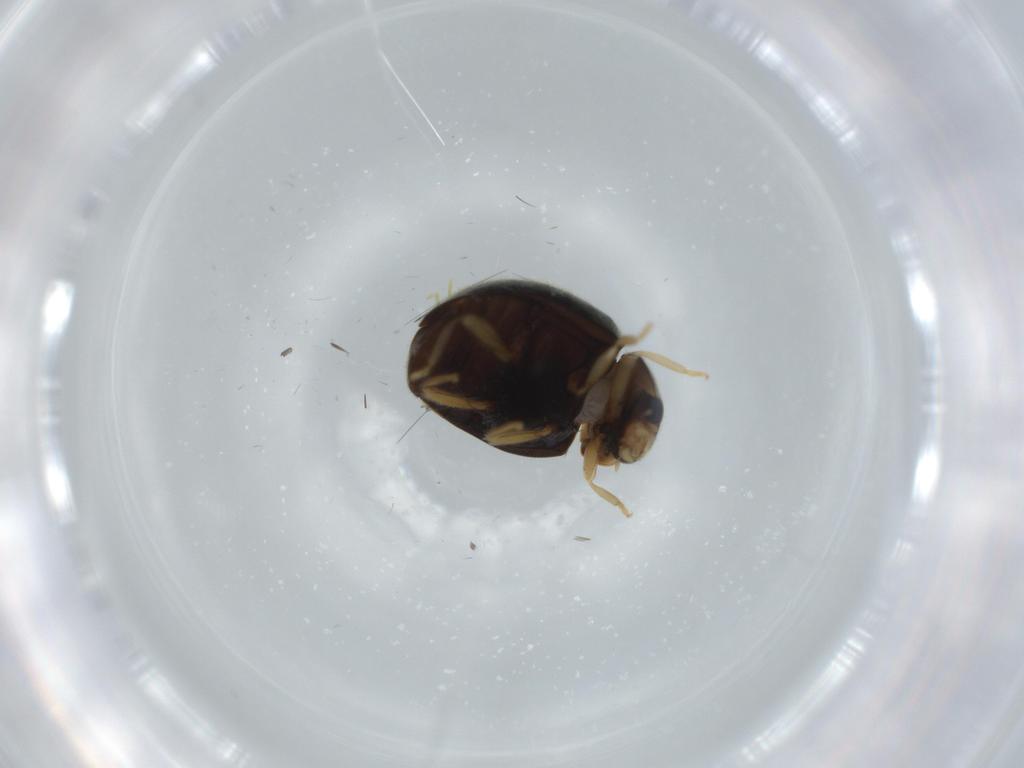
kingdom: Animalia
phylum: Arthropoda
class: Insecta
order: Coleoptera
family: Coccinellidae
